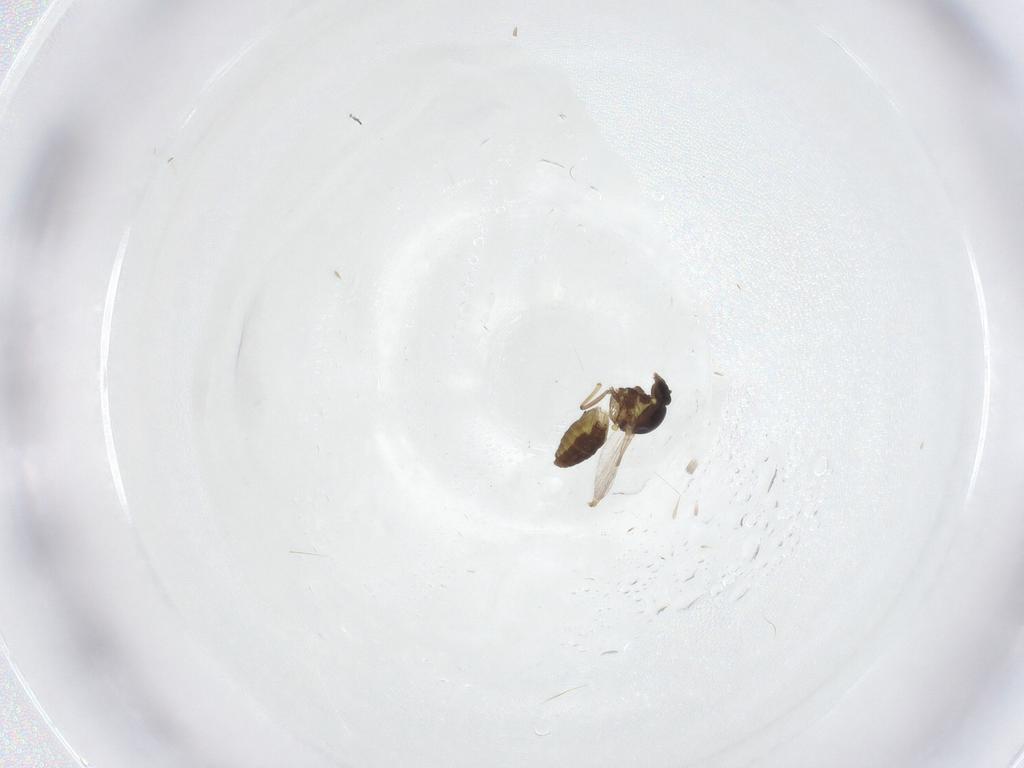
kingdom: Animalia
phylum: Arthropoda
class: Insecta
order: Diptera
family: Ceratopogonidae
